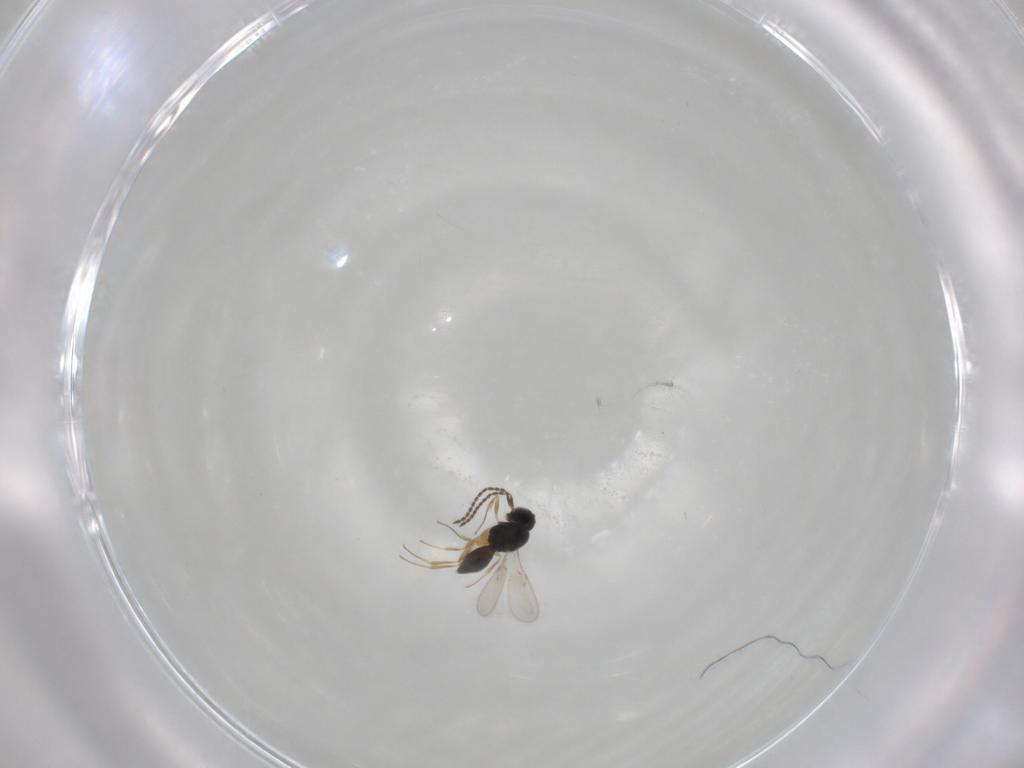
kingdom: Animalia
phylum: Arthropoda
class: Insecta
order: Hymenoptera
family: Scelionidae
